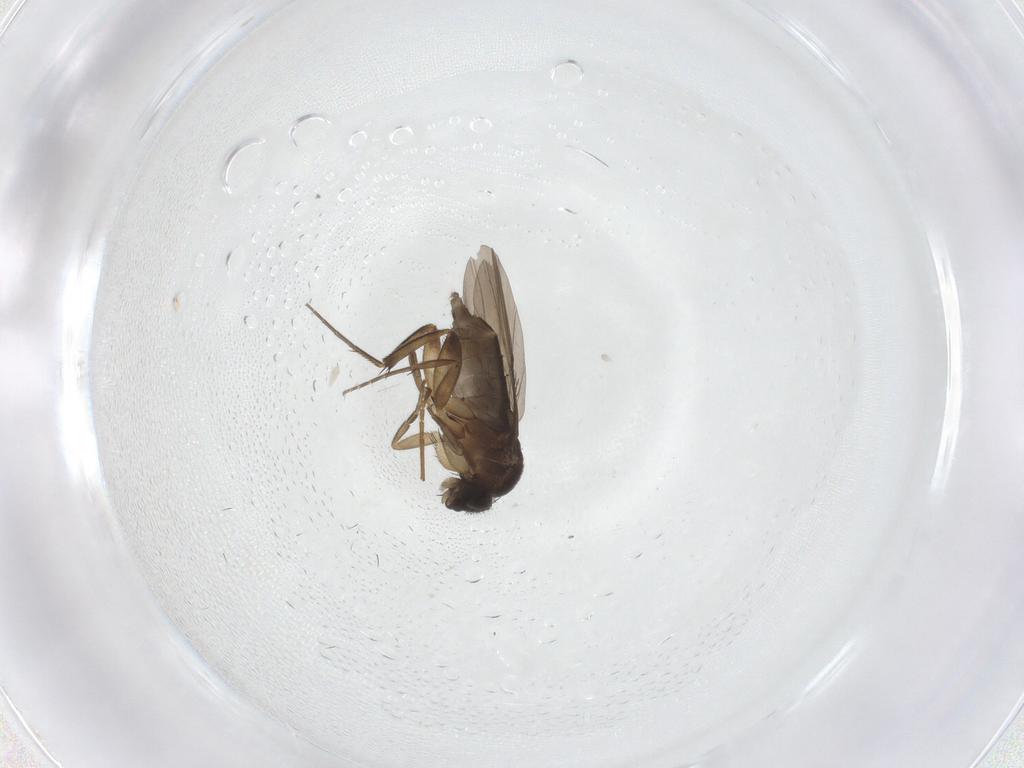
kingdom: Animalia
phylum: Arthropoda
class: Insecta
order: Diptera
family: Phoridae
